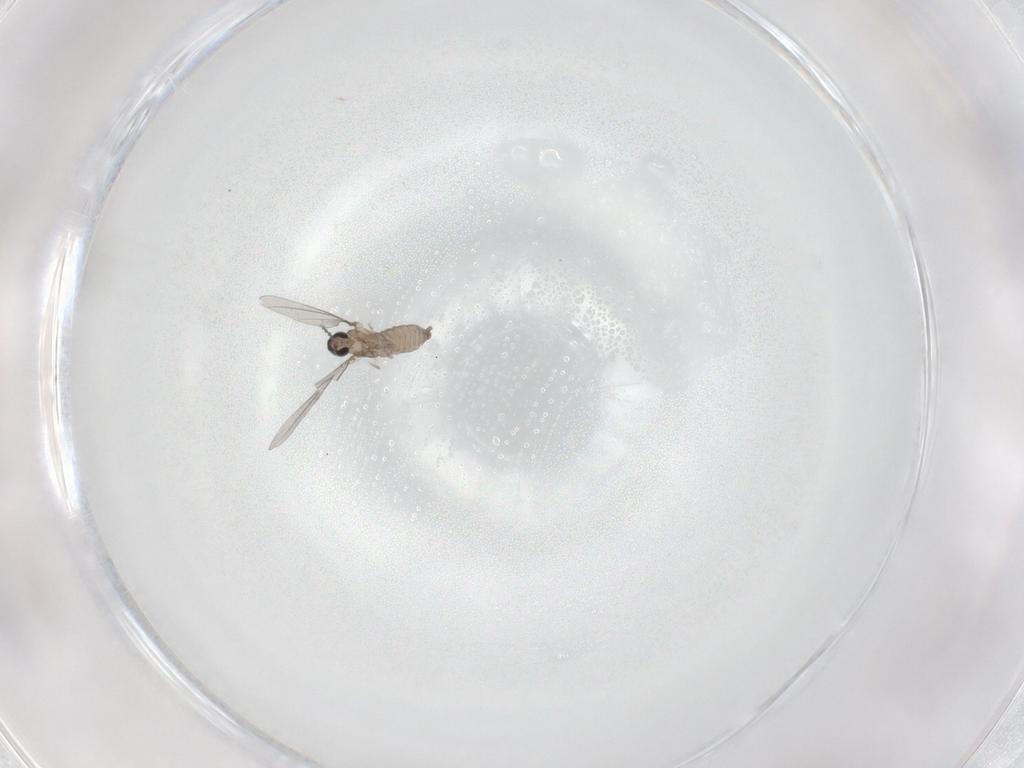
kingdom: Animalia
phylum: Arthropoda
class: Insecta
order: Diptera
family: Cecidomyiidae
